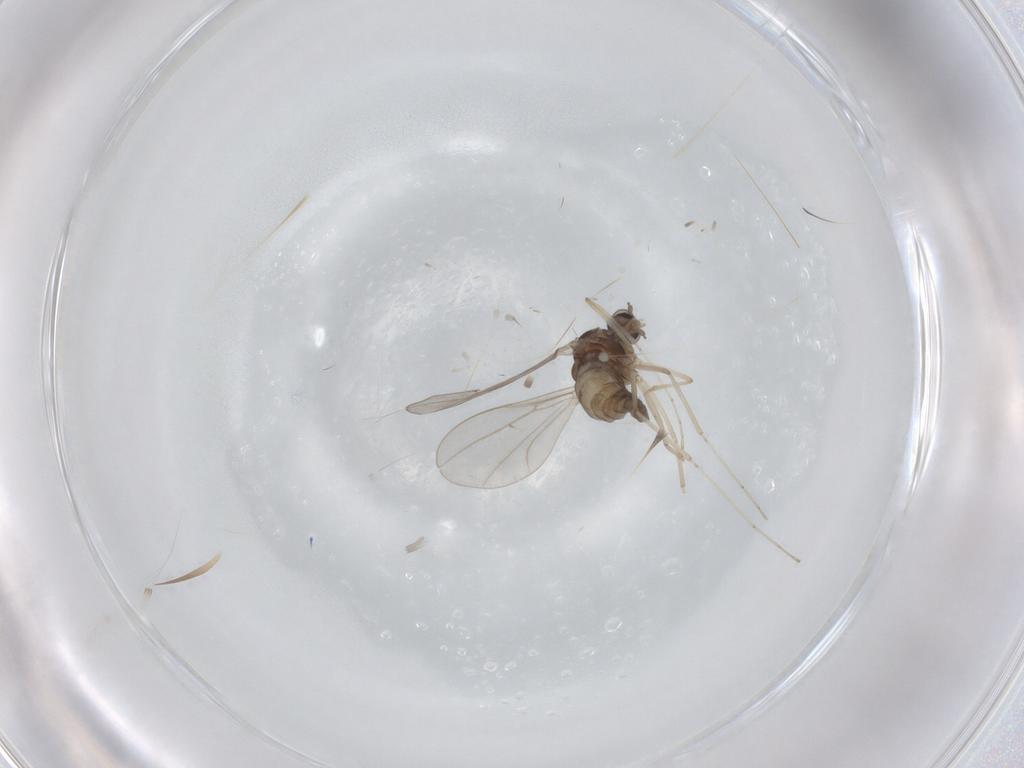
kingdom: Animalia
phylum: Arthropoda
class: Insecta
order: Diptera
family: Cecidomyiidae
